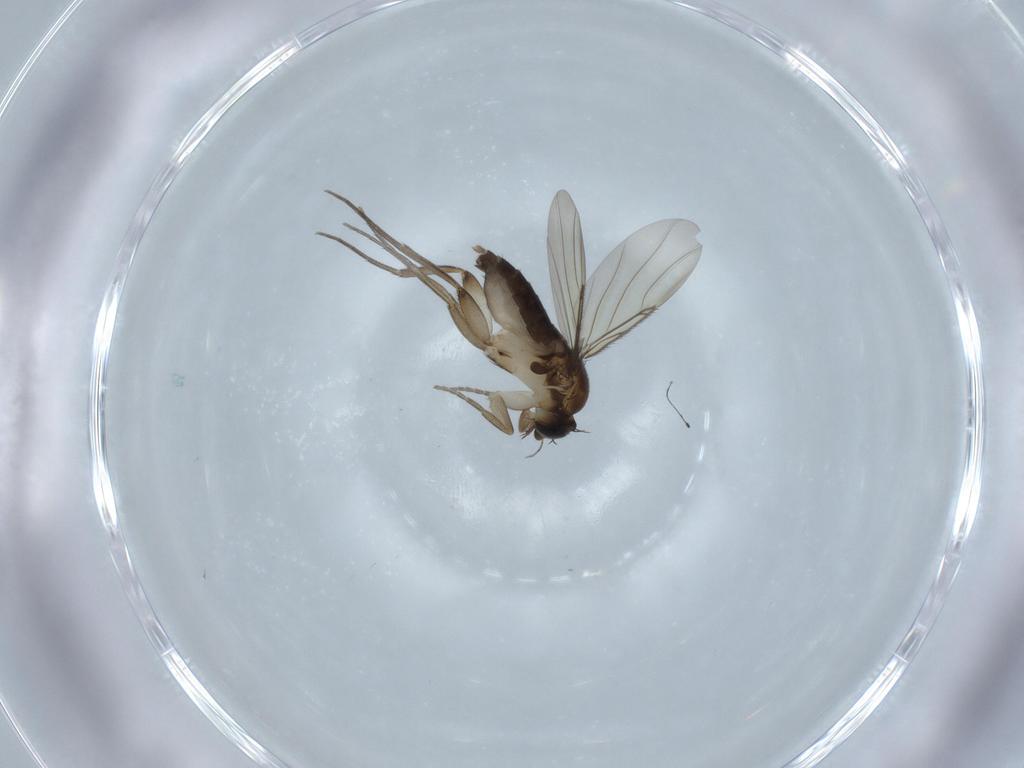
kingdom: Animalia
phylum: Arthropoda
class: Insecta
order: Diptera
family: Phoridae
